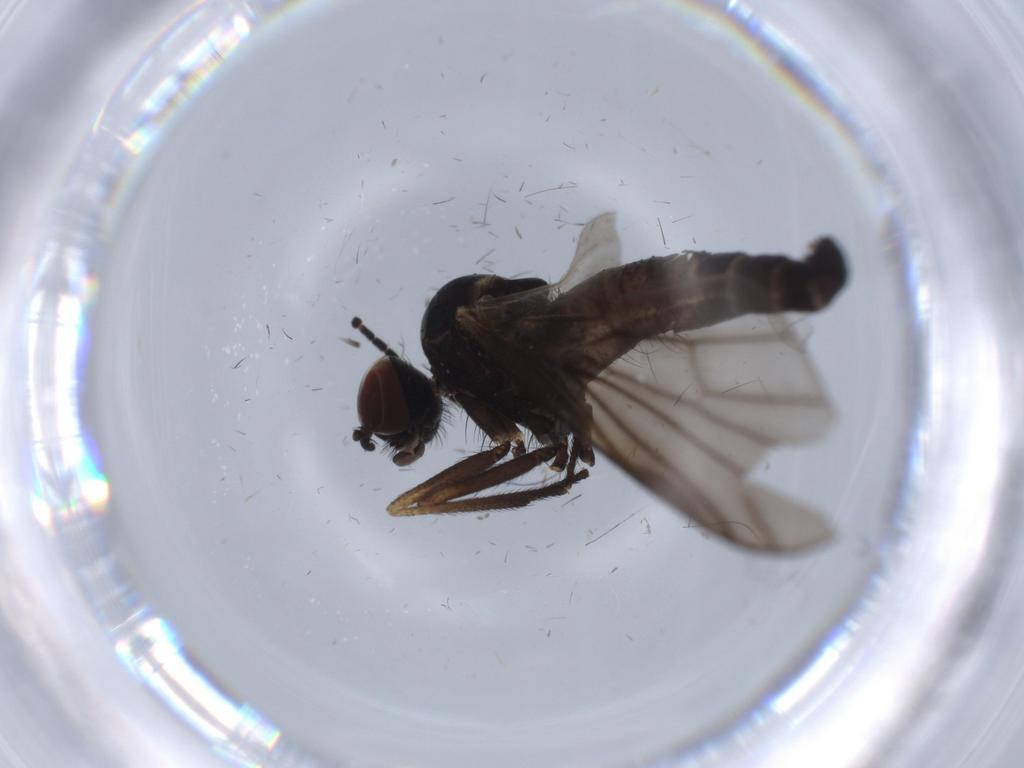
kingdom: Animalia
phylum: Arthropoda
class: Insecta
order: Diptera
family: Brachystomatidae
